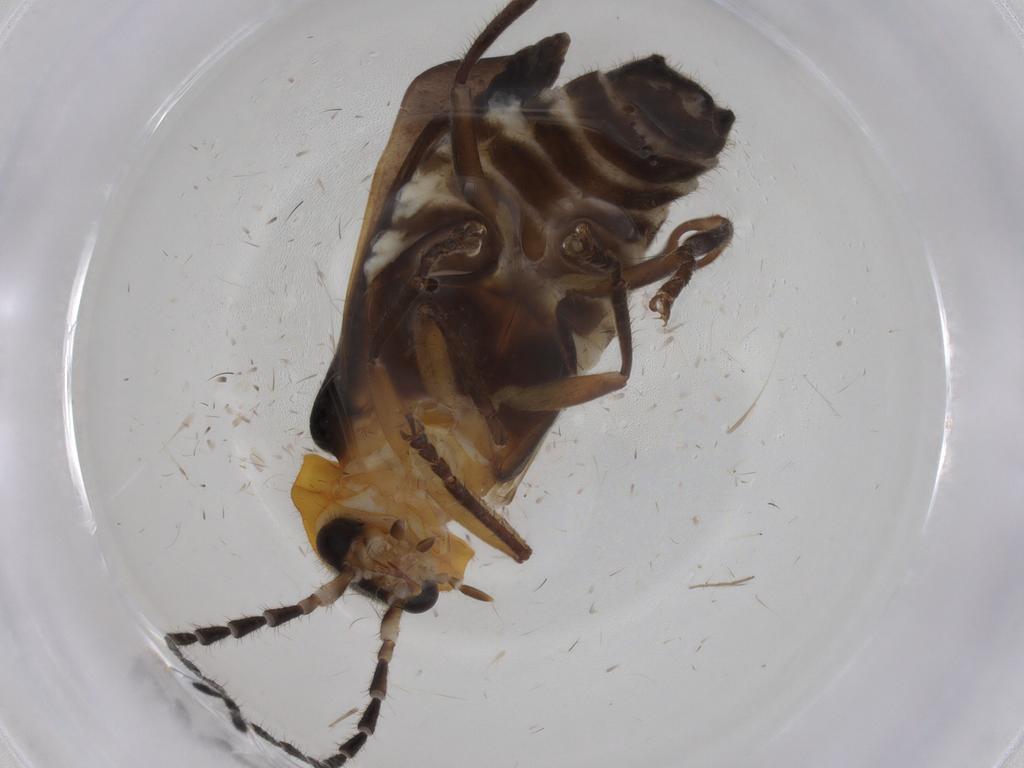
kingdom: Animalia
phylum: Arthropoda
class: Insecta
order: Coleoptera
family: Cantharidae
